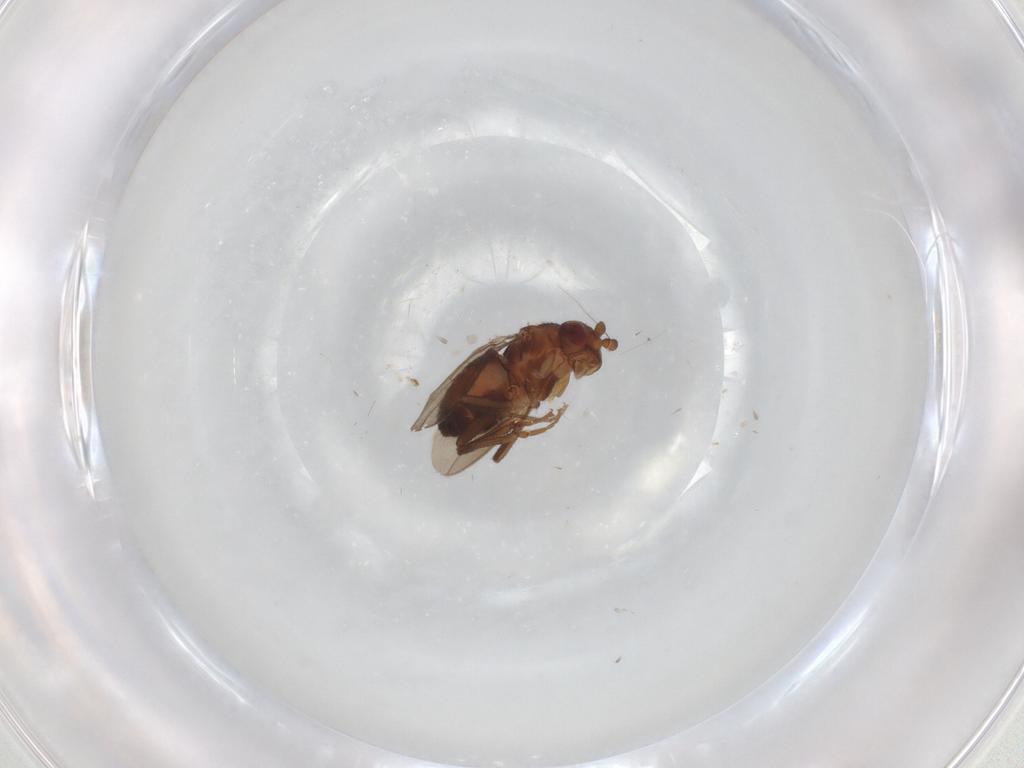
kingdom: Animalia
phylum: Arthropoda
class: Insecta
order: Diptera
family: Cecidomyiidae
